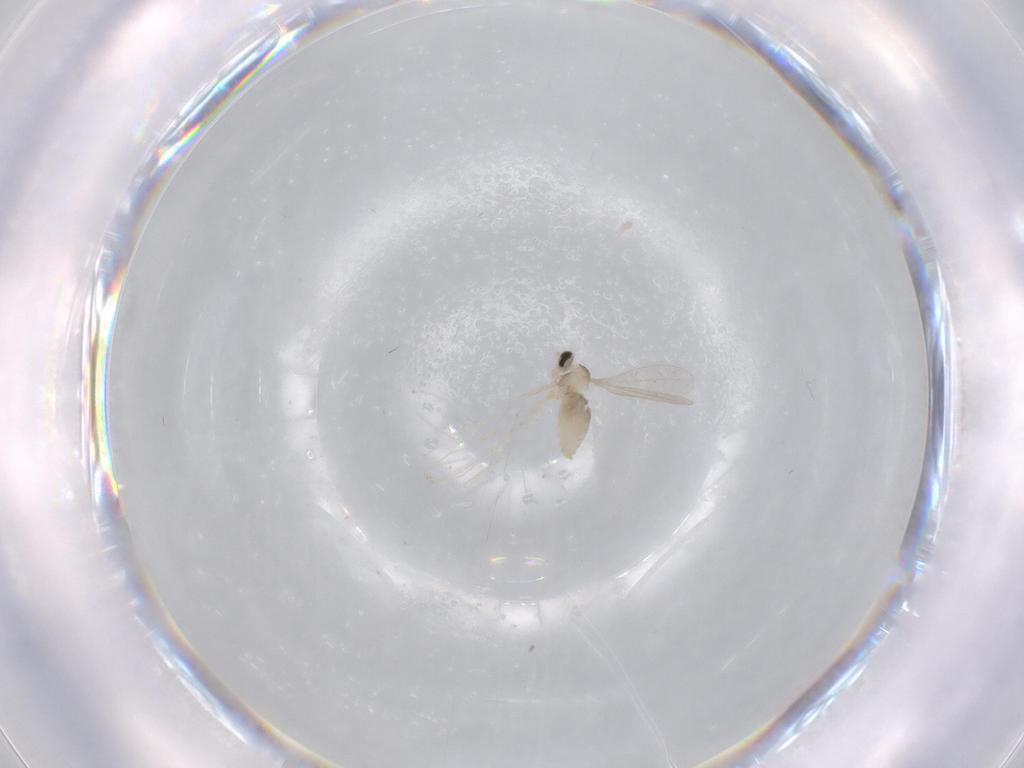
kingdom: Animalia
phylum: Arthropoda
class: Insecta
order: Diptera
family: Cecidomyiidae
